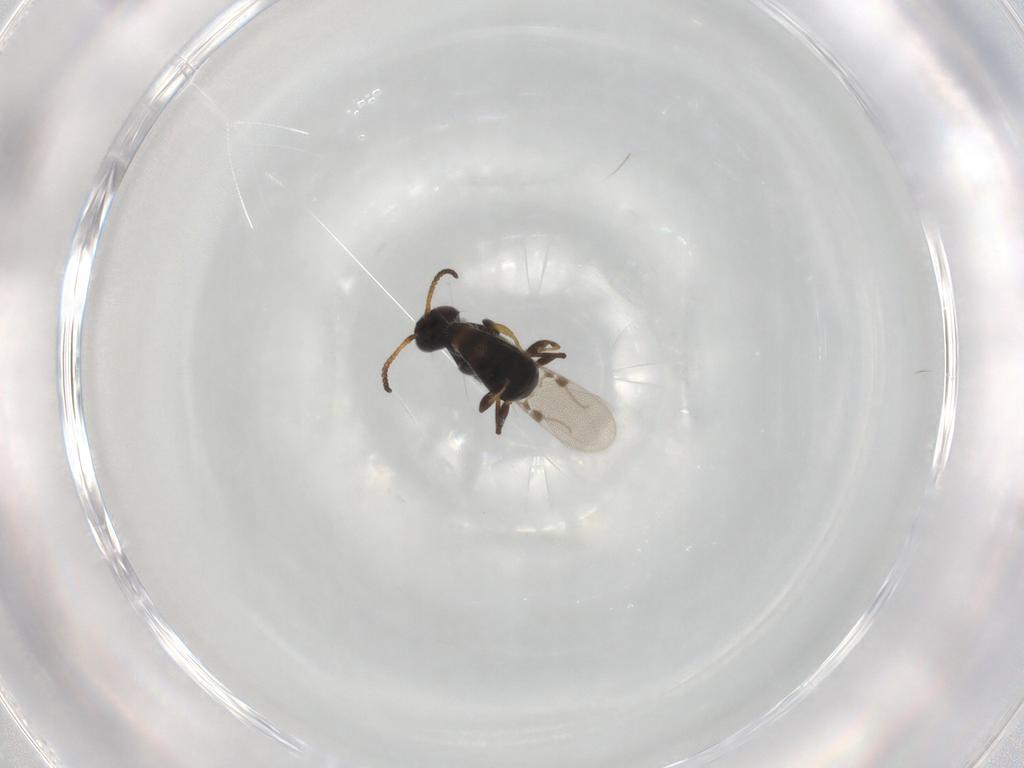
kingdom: Animalia
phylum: Arthropoda
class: Insecta
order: Hymenoptera
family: Bethylidae
